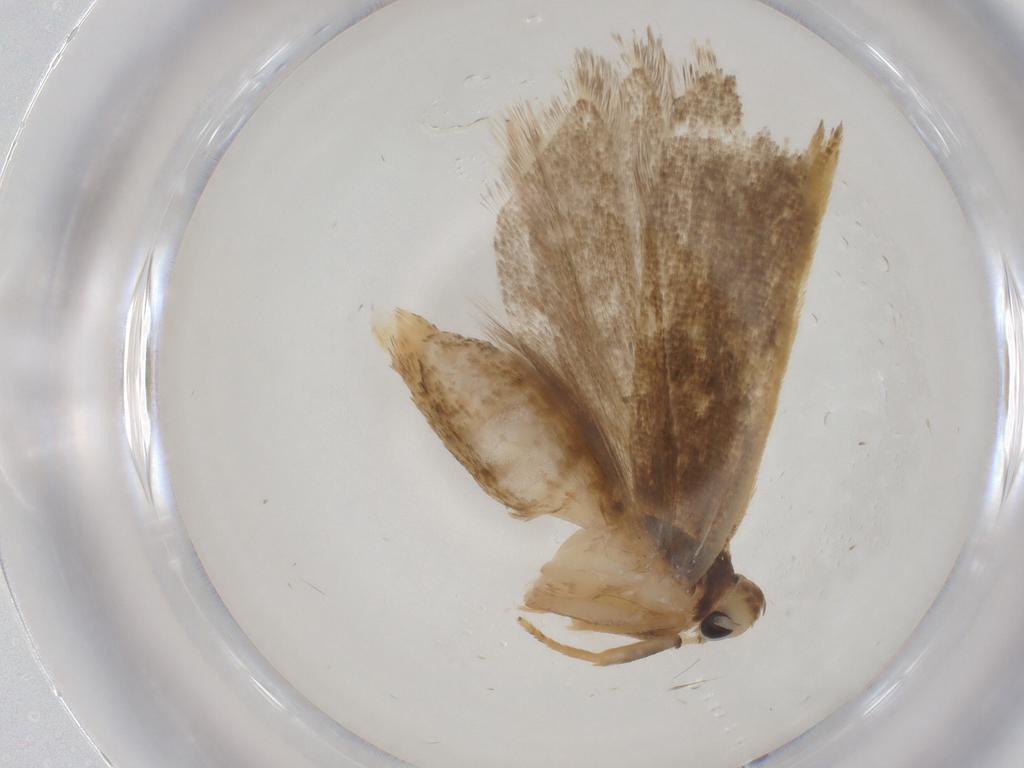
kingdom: Animalia
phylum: Arthropoda
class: Insecta
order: Lepidoptera
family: Gelechiidae
